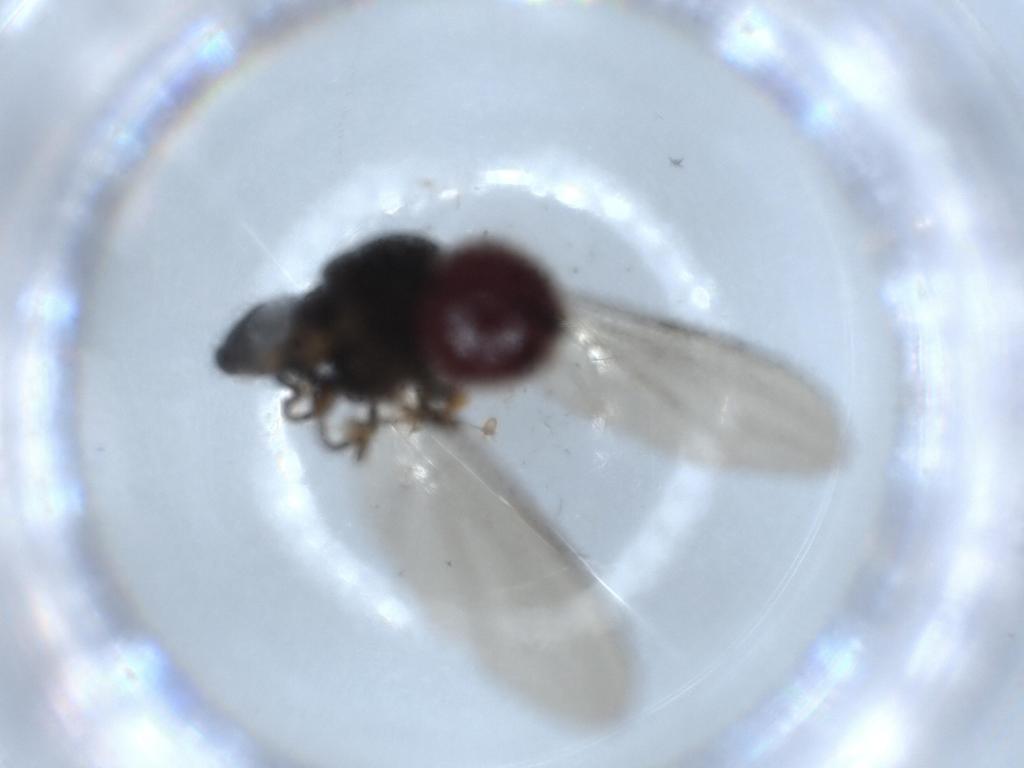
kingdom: Animalia
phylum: Arthropoda
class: Insecta
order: Diptera
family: Pipunculidae
